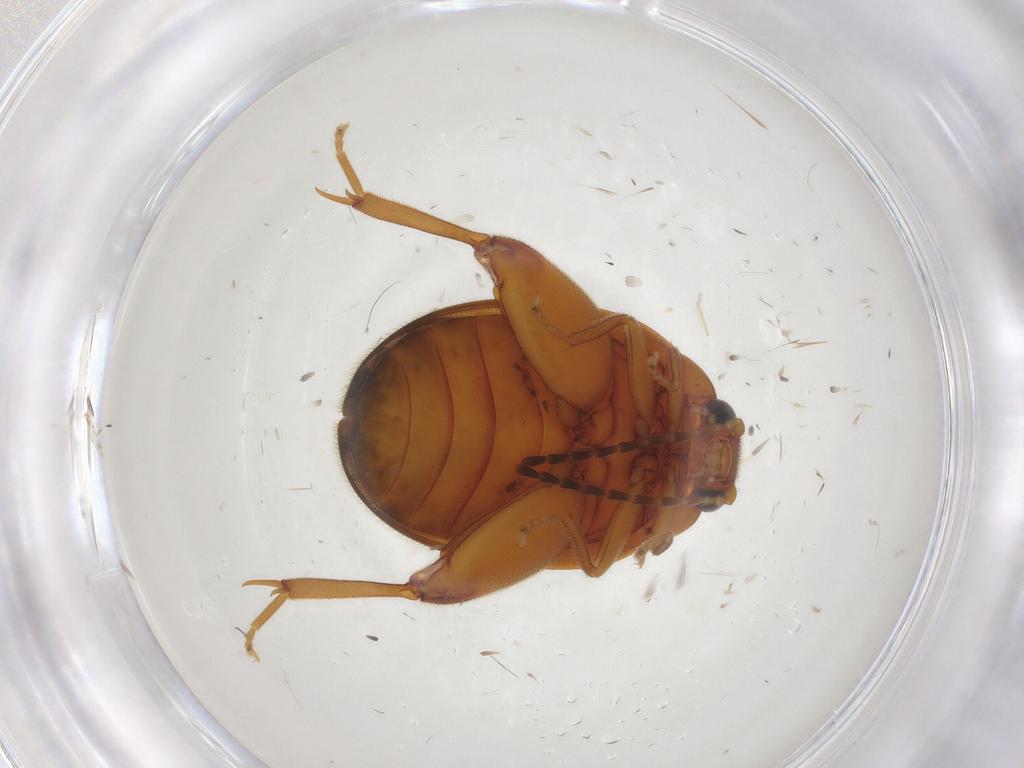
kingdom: Animalia
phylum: Arthropoda
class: Insecta
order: Coleoptera
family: Scirtidae
